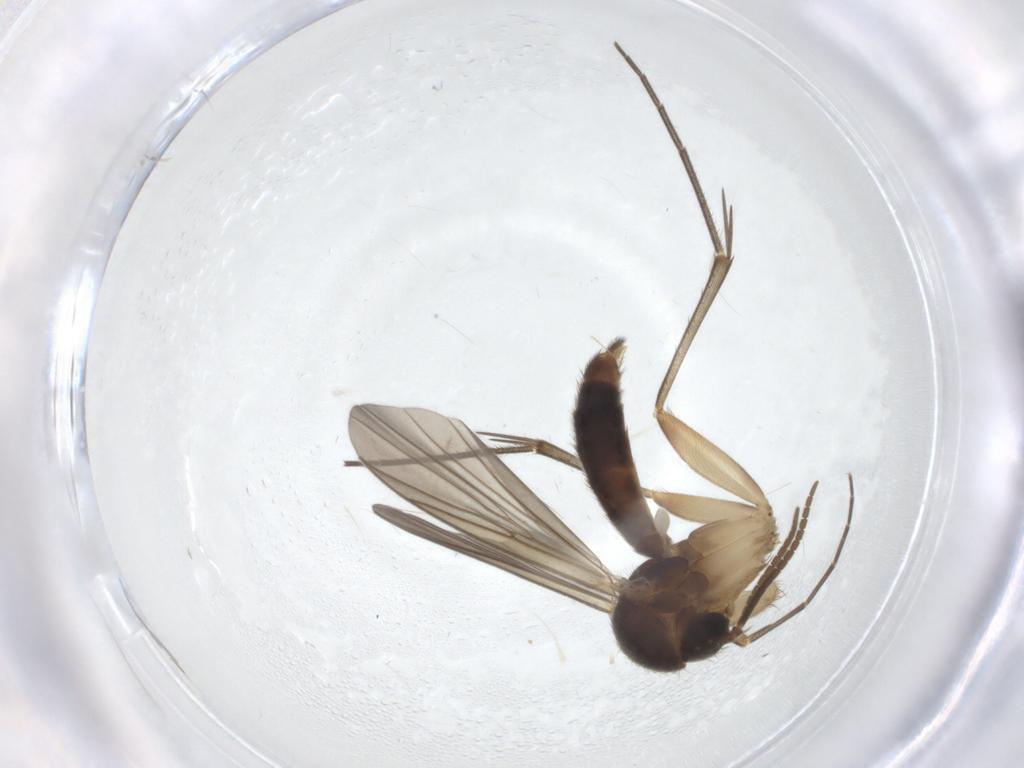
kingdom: Animalia
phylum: Arthropoda
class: Insecta
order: Diptera
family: Mycetophilidae
